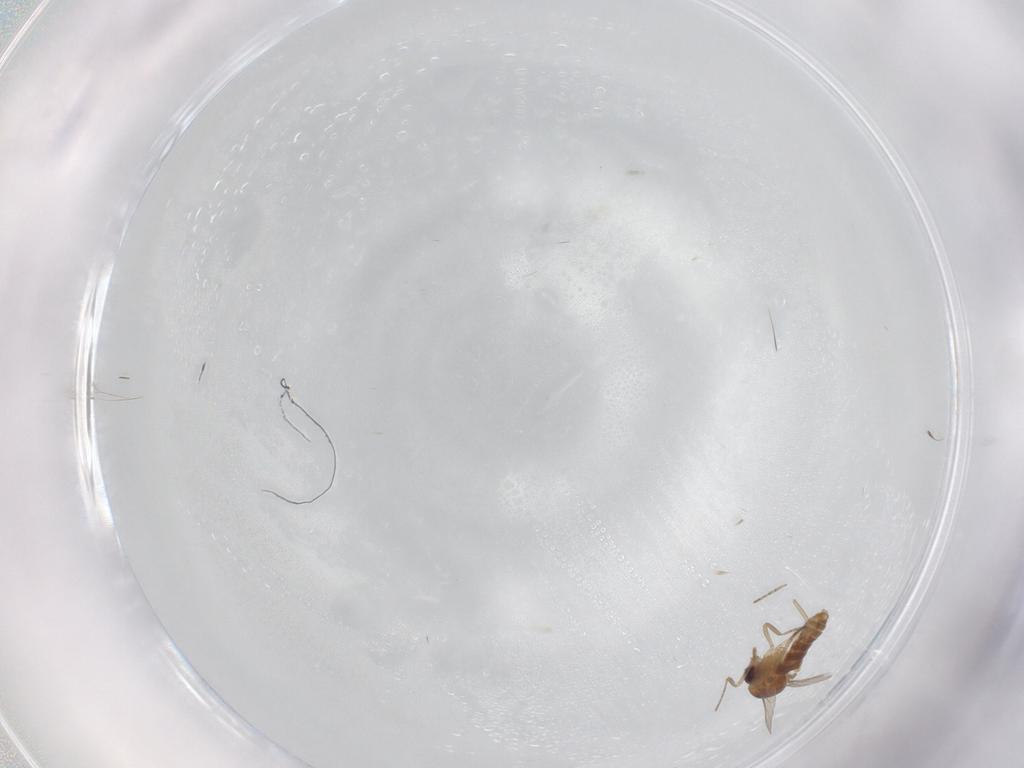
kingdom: Animalia
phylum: Arthropoda
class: Insecta
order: Diptera
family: Ceratopogonidae
